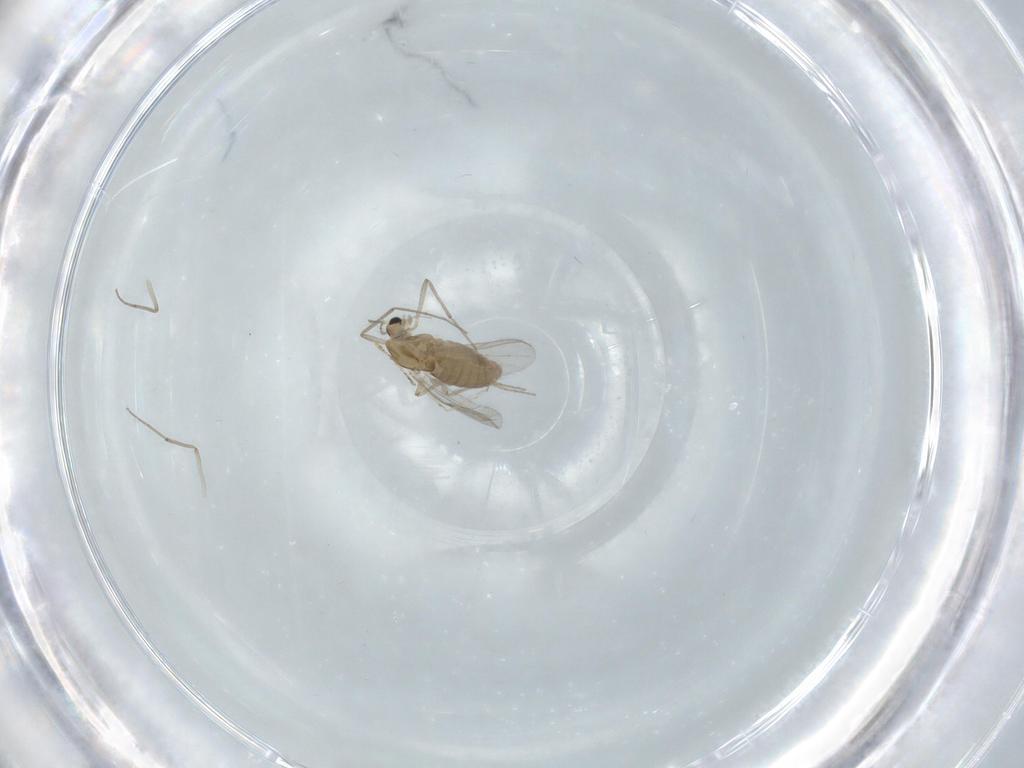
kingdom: Animalia
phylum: Arthropoda
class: Insecta
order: Diptera
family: Chironomidae
